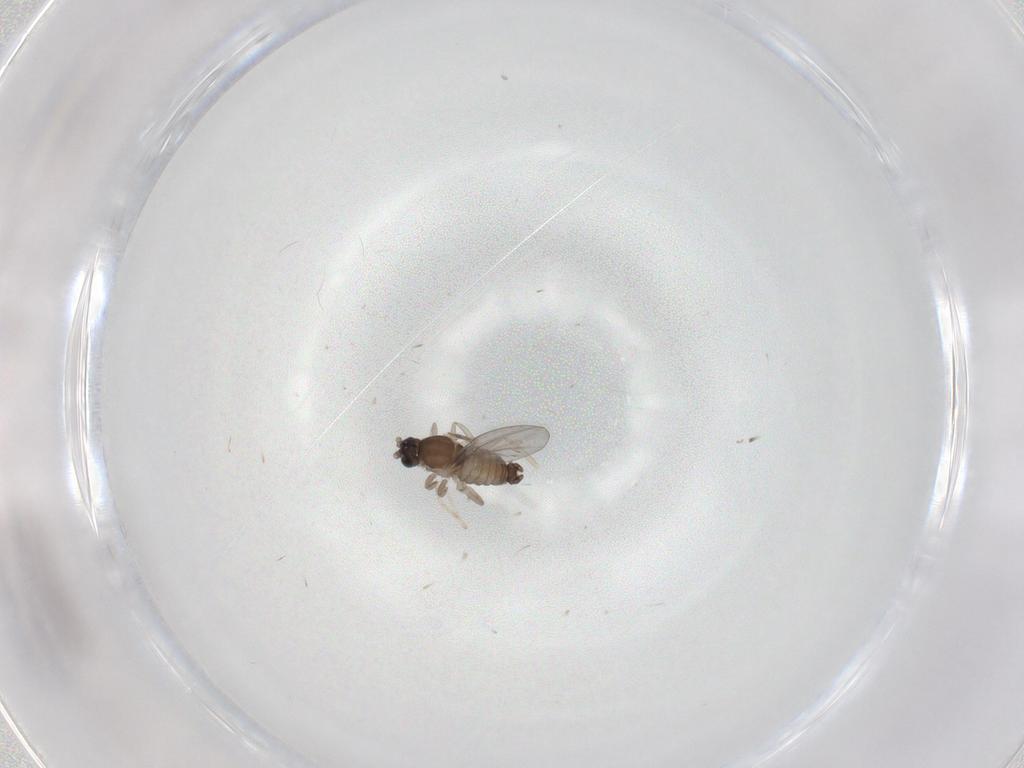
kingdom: Animalia
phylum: Arthropoda
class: Insecta
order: Diptera
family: Cecidomyiidae
